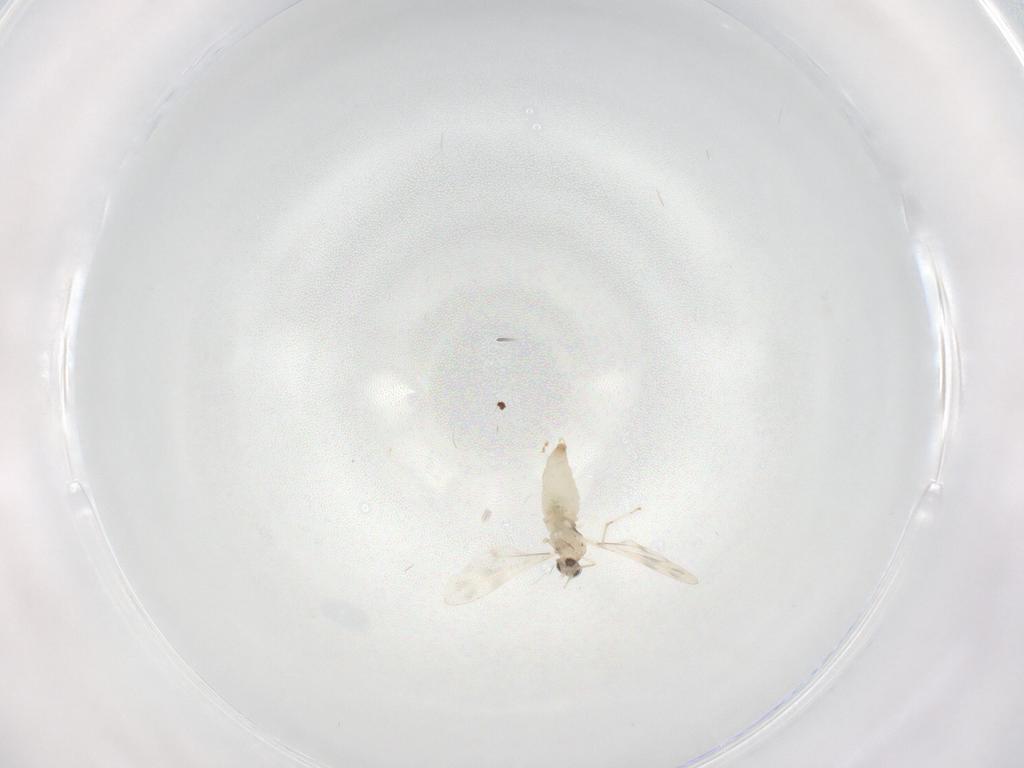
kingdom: Animalia
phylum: Arthropoda
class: Insecta
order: Diptera
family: Cecidomyiidae
